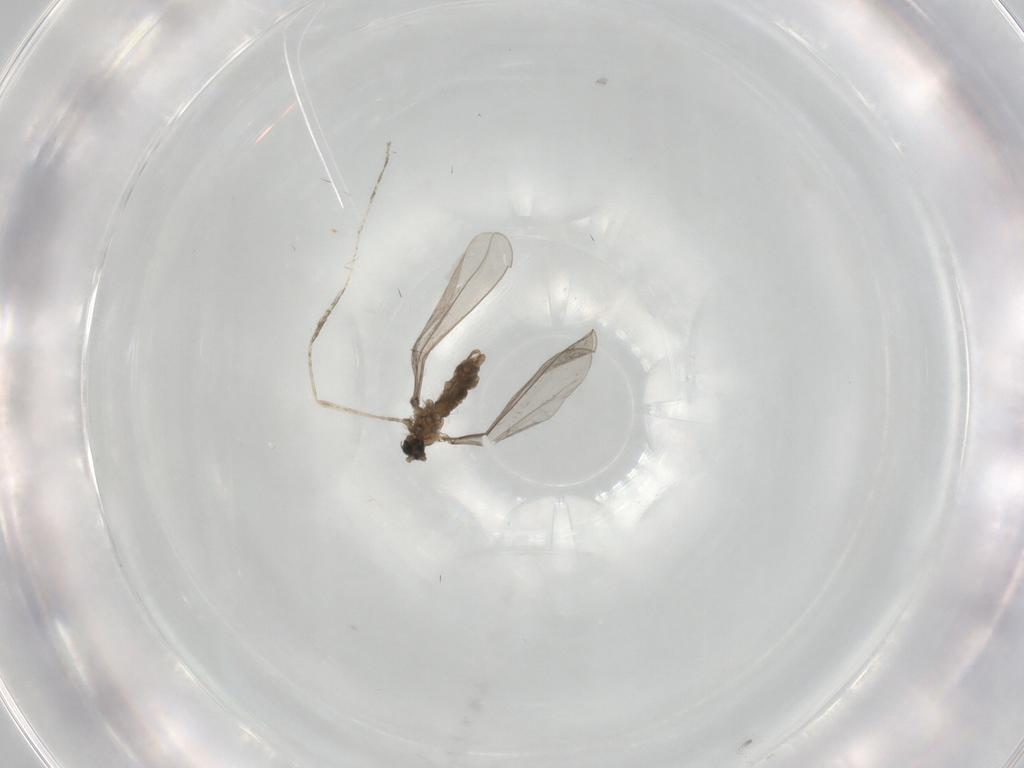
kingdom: Animalia
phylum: Arthropoda
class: Insecta
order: Diptera
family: Cecidomyiidae
